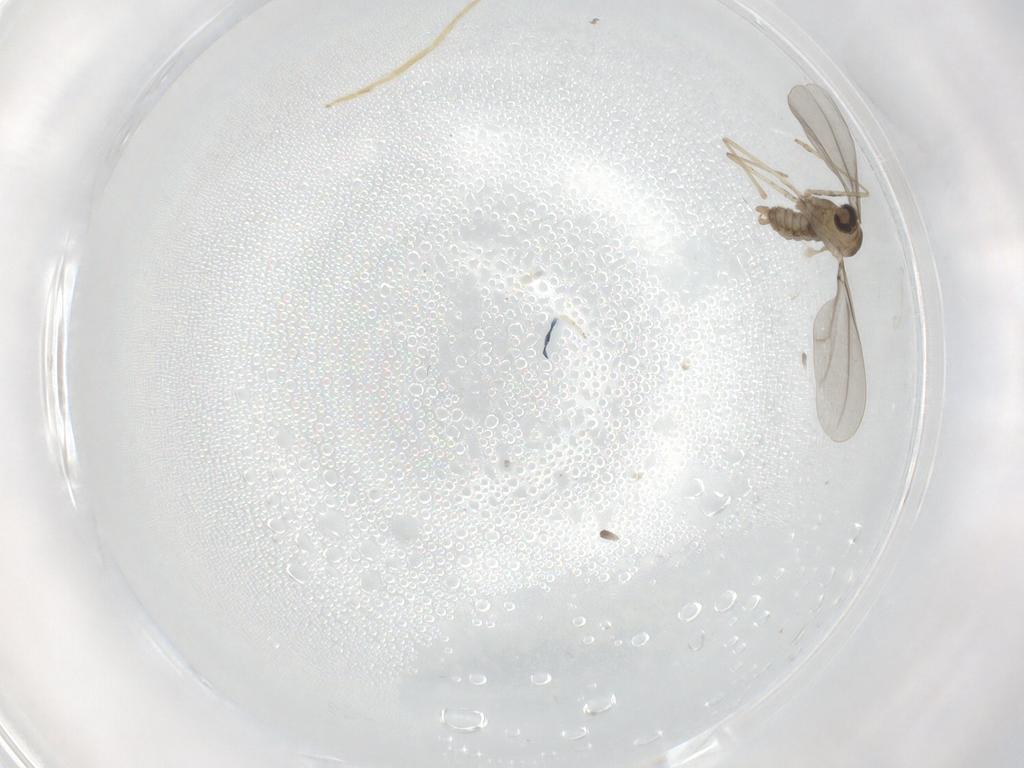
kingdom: Animalia
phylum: Arthropoda
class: Insecta
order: Diptera
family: Cecidomyiidae
